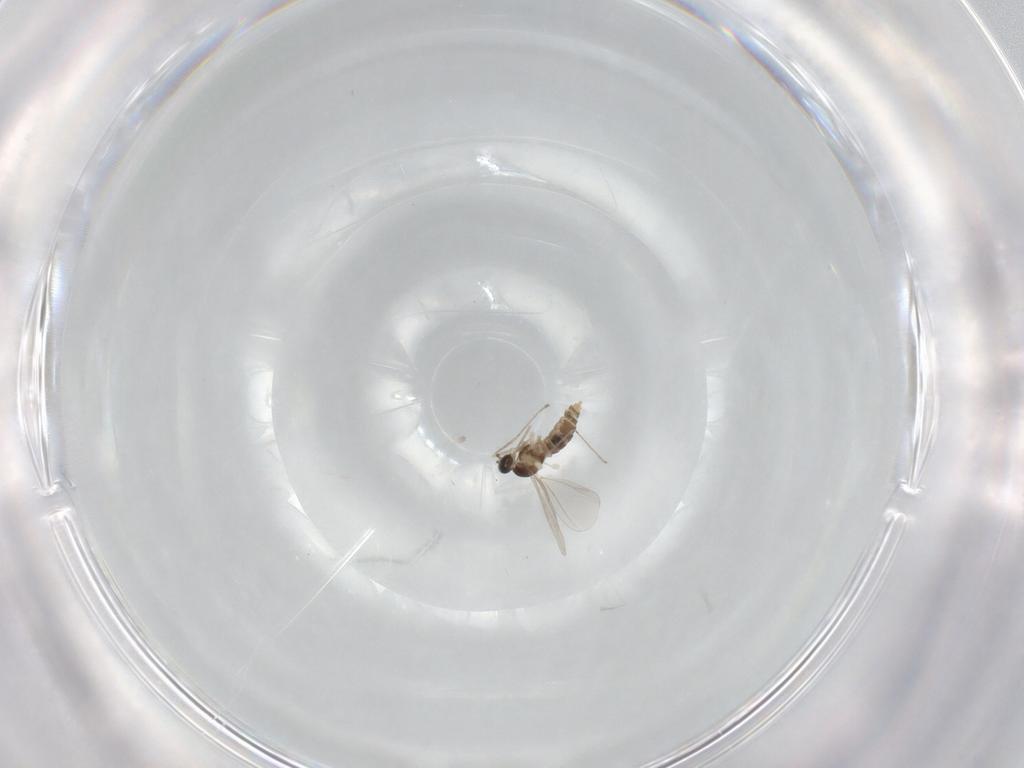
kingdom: Animalia
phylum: Arthropoda
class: Insecta
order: Diptera
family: Cecidomyiidae
